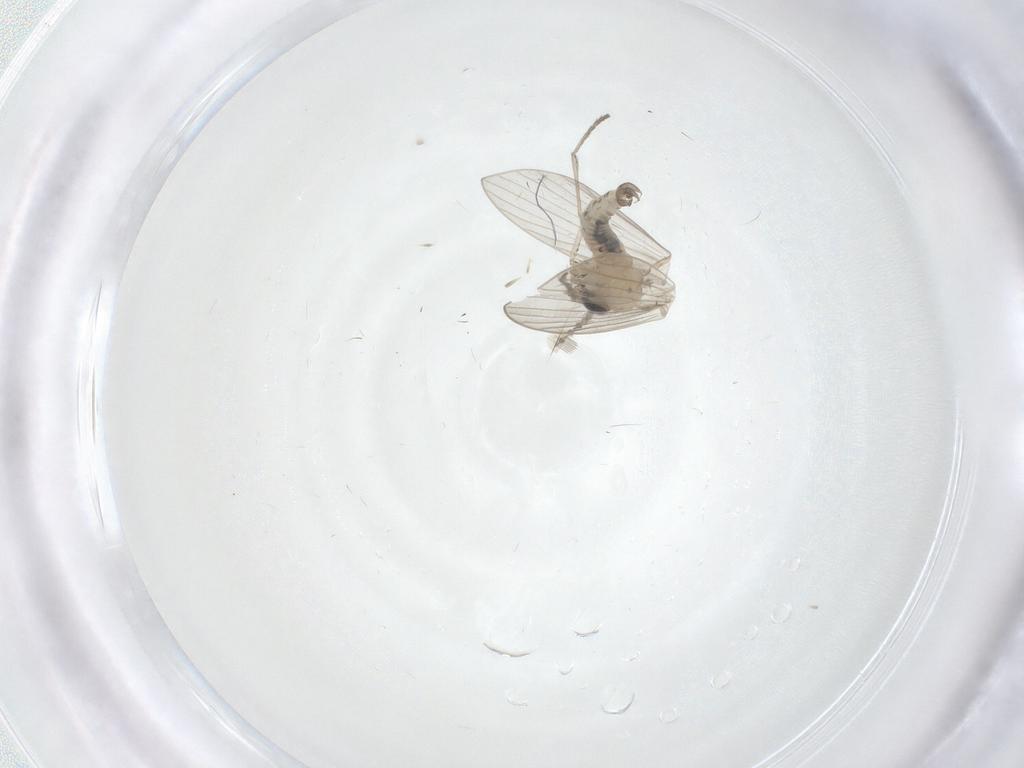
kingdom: Animalia
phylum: Arthropoda
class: Insecta
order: Diptera
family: Psychodidae
